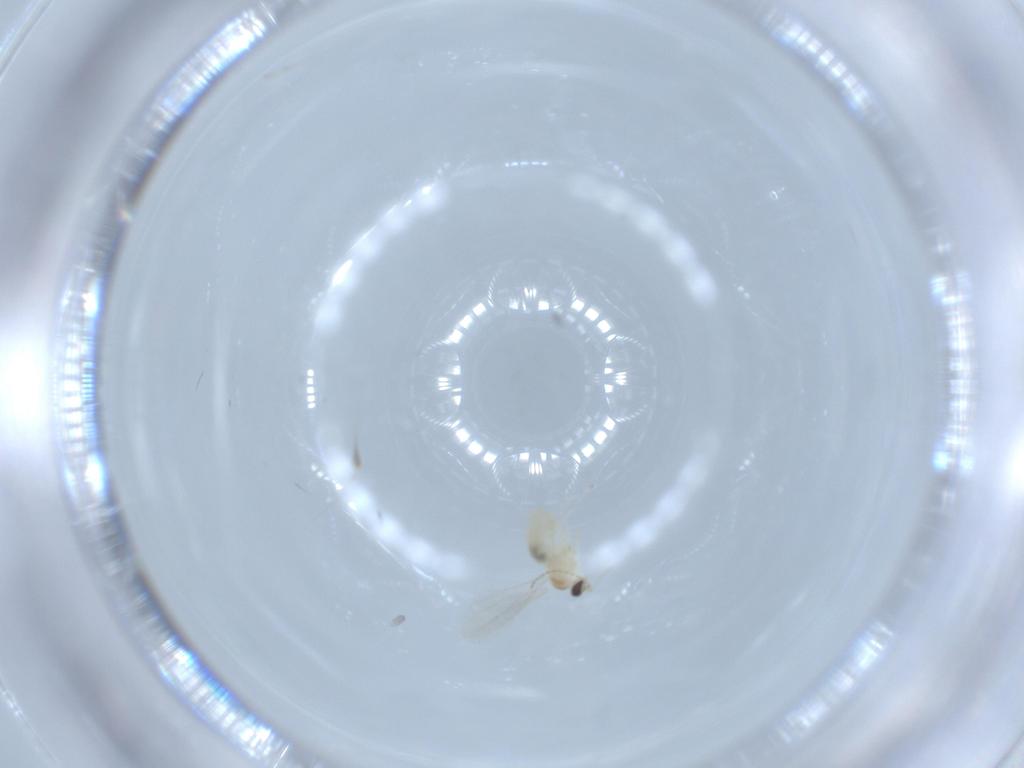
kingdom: Animalia
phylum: Arthropoda
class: Insecta
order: Diptera
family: Cecidomyiidae
